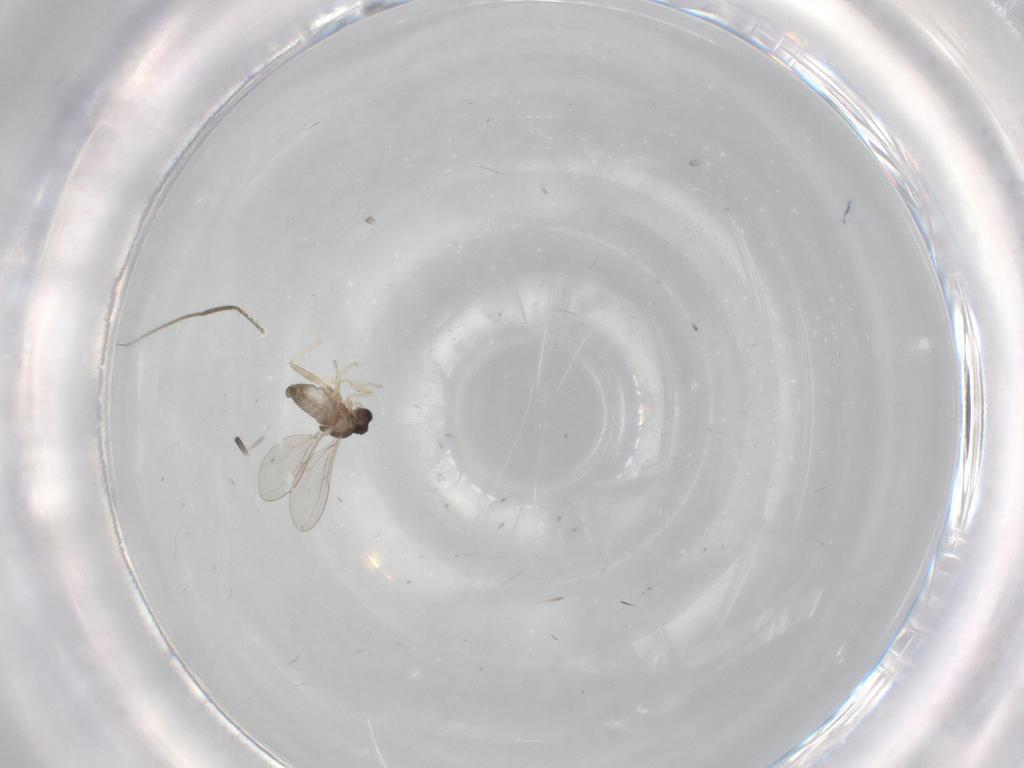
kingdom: Animalia
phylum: Arthropoda
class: Insecta
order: Diptera
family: Cecidomyiidae
